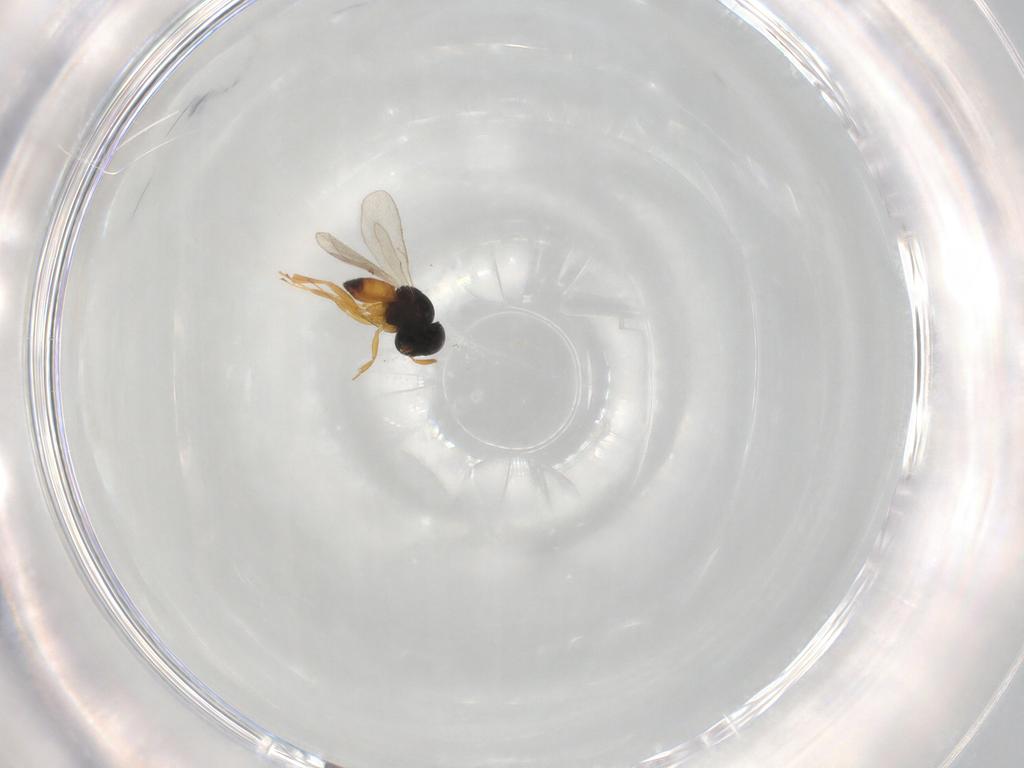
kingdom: Animalia
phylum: Arthropoda
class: Insecta
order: Hymenoptera
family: Scelionidae
